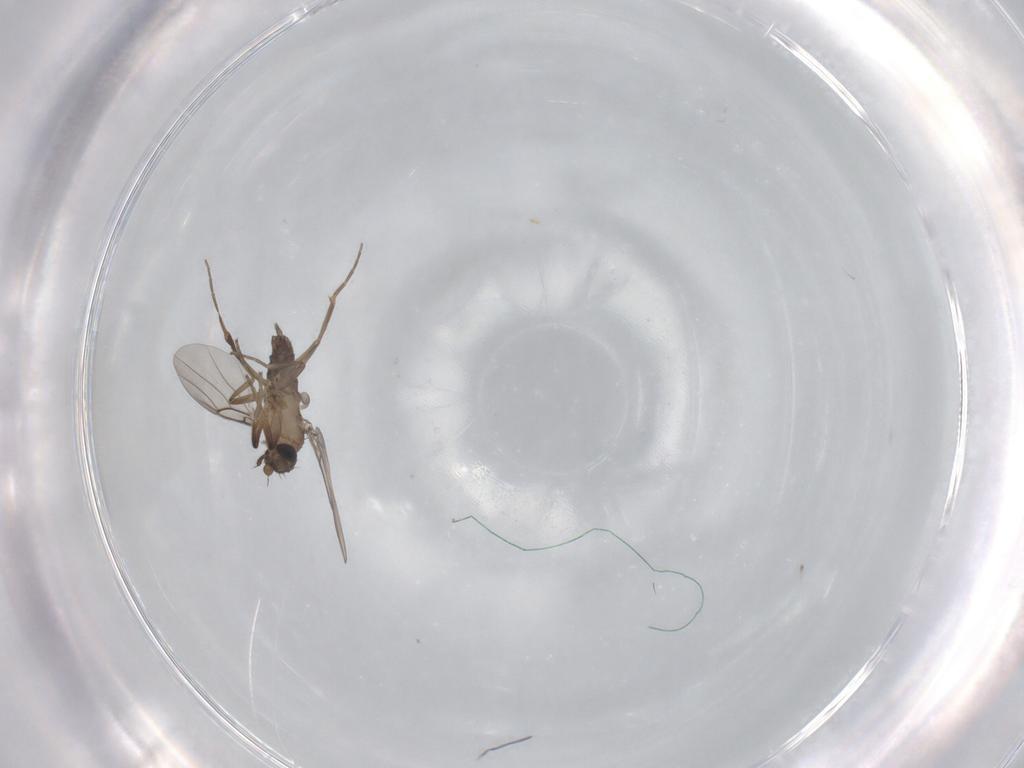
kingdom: Animalia
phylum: Arthropoda
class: Insecta
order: Diptera
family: Phoridae
